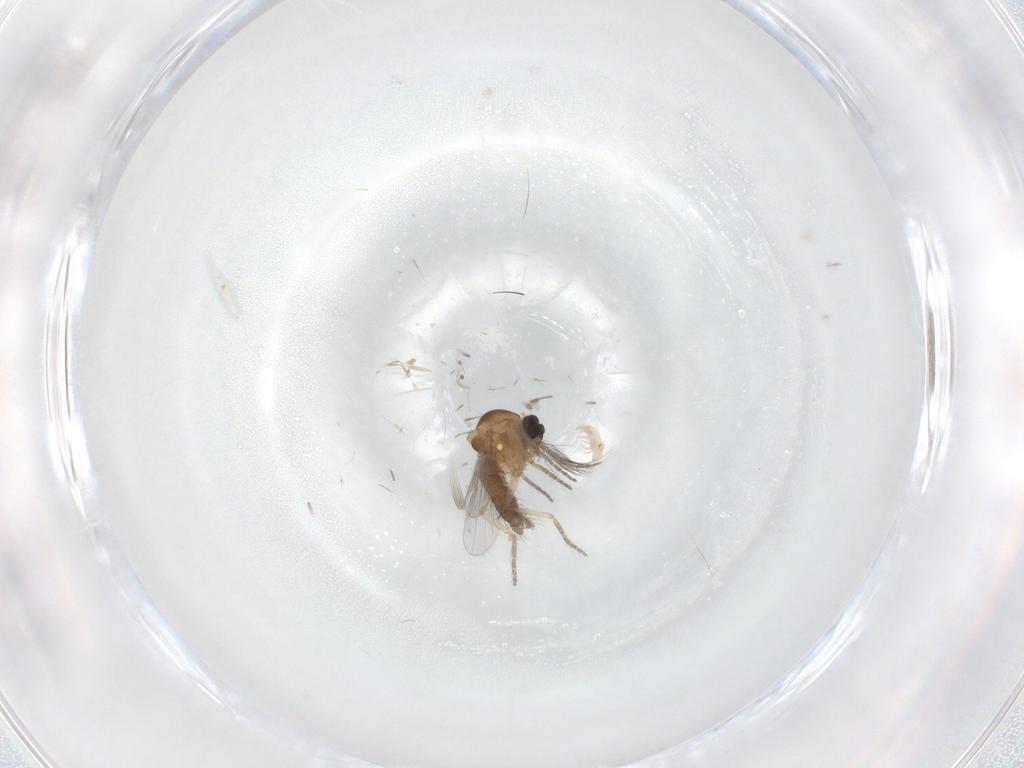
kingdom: Animalia
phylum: Arthropoda
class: Insecta
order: Diptera
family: Ceratopogonidae
